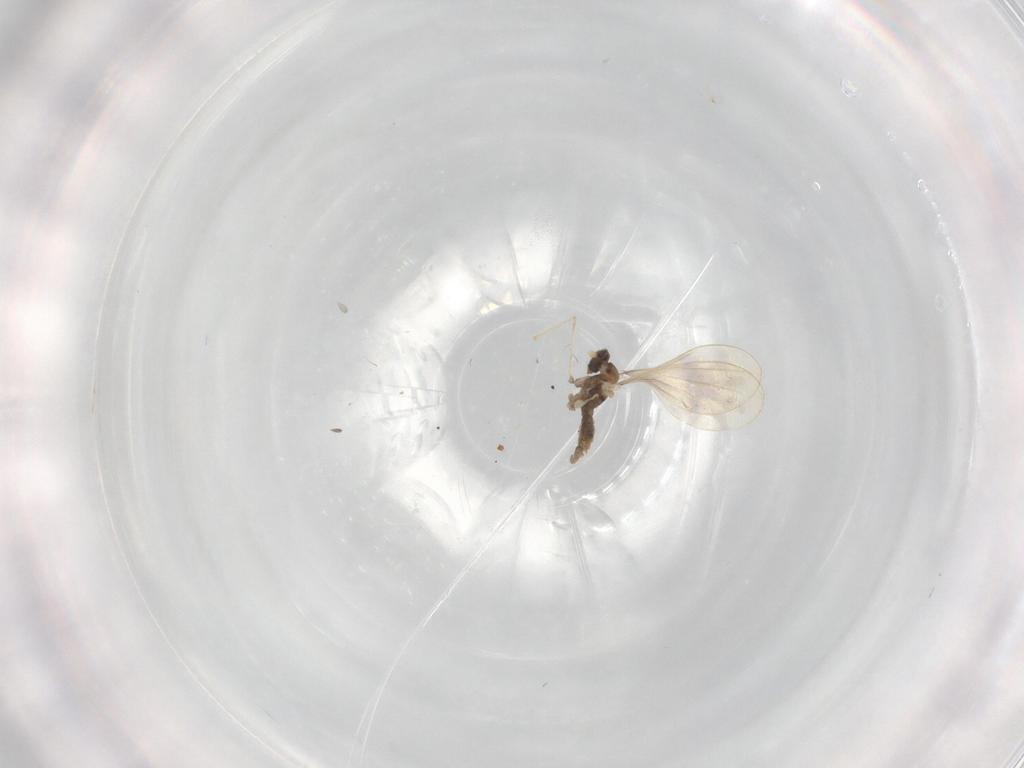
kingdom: Animalia
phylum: Arthropoda
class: Insecta
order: Diptera
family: Cecidomyiidae
